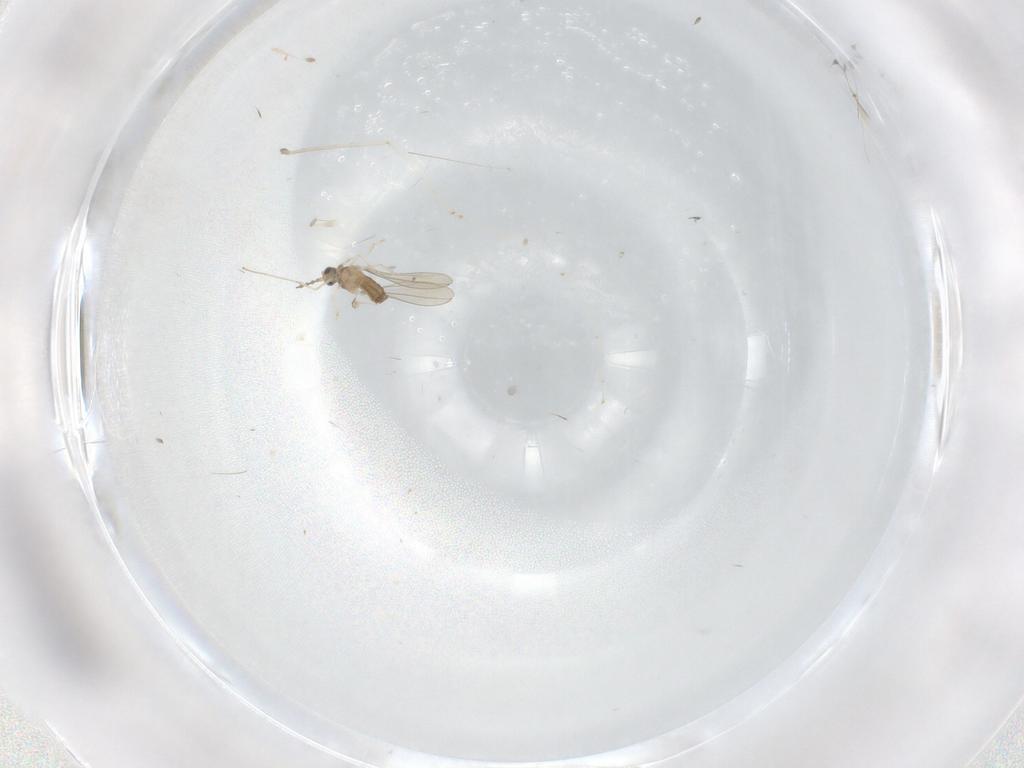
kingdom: Animalia
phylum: Arthropoda
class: Insecta
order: Diptera
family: Cecidomyiidae
